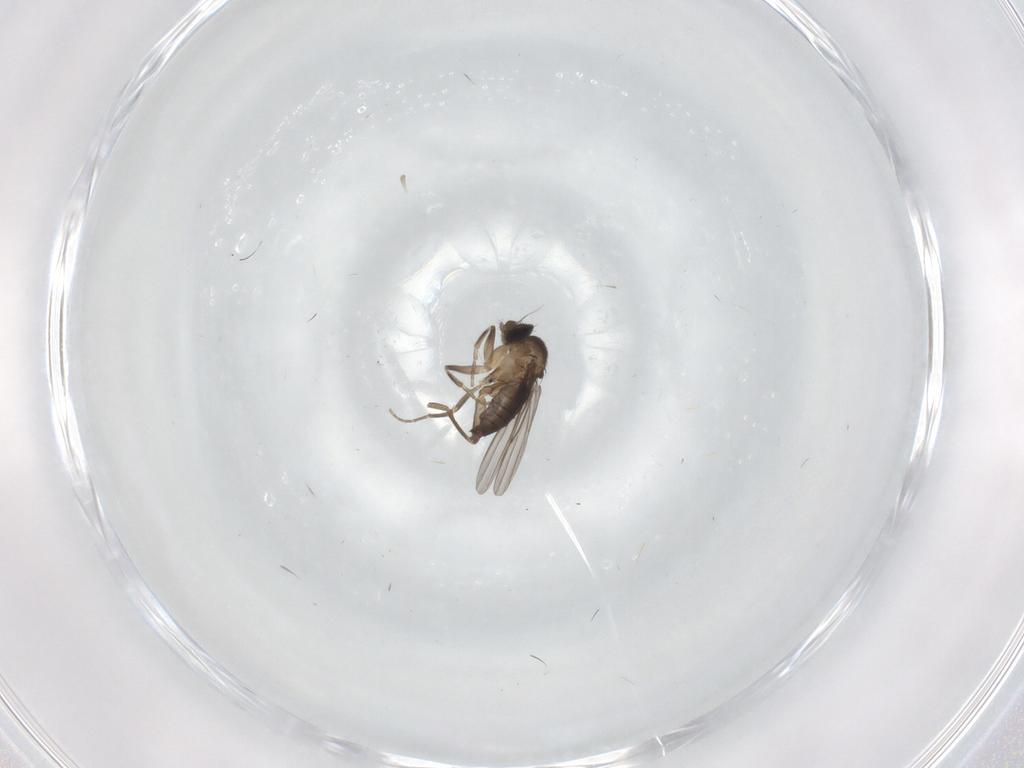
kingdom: Animalia
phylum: Arthropoda
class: Insecta
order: Diptera
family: Phoridae
